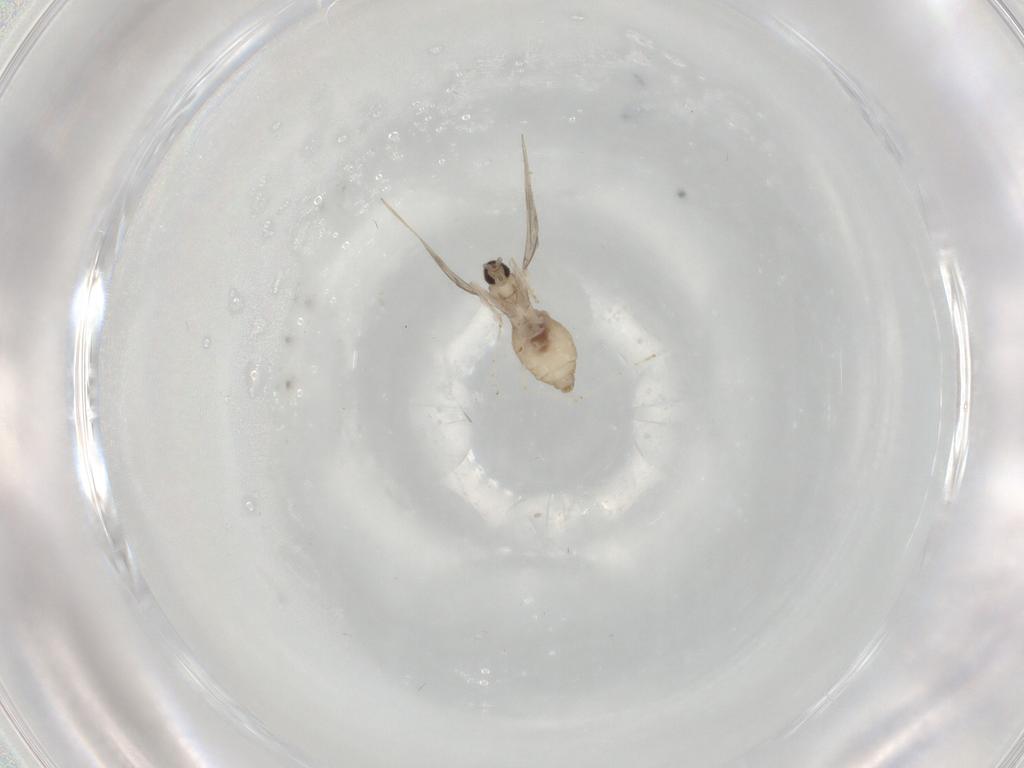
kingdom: Animalia
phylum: Arthropoda
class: Insecta
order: Diptera
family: Cecidomyiidae
